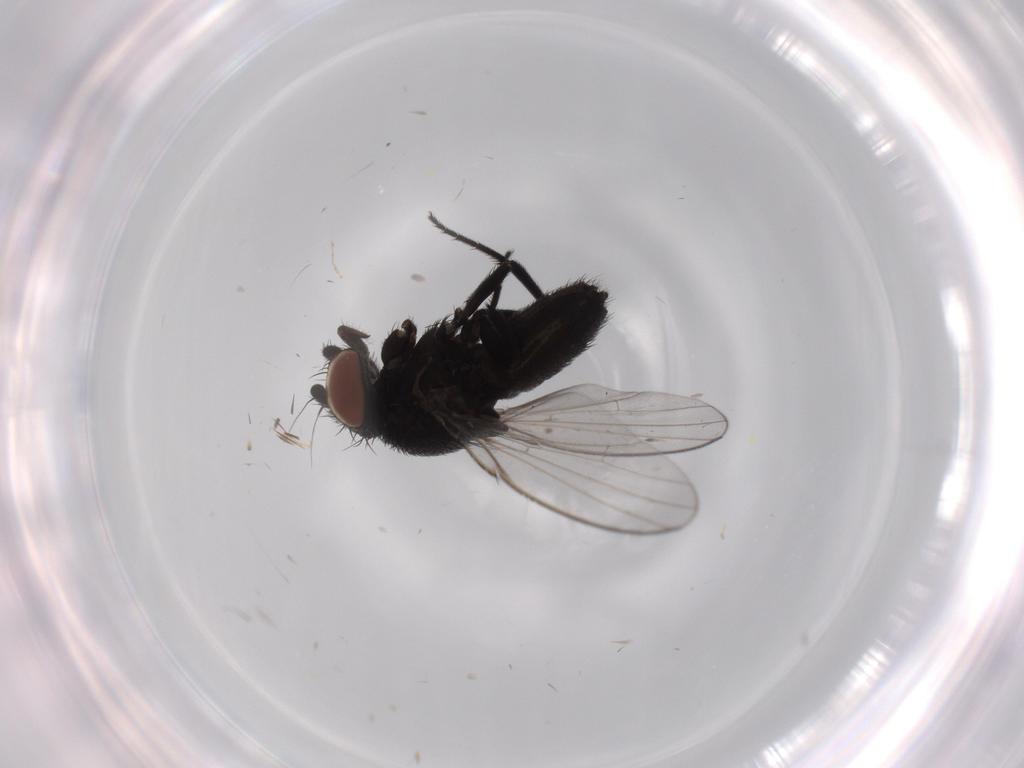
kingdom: Animalia
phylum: Arthropoda
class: Insecta
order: Diptera
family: Milichiidae
